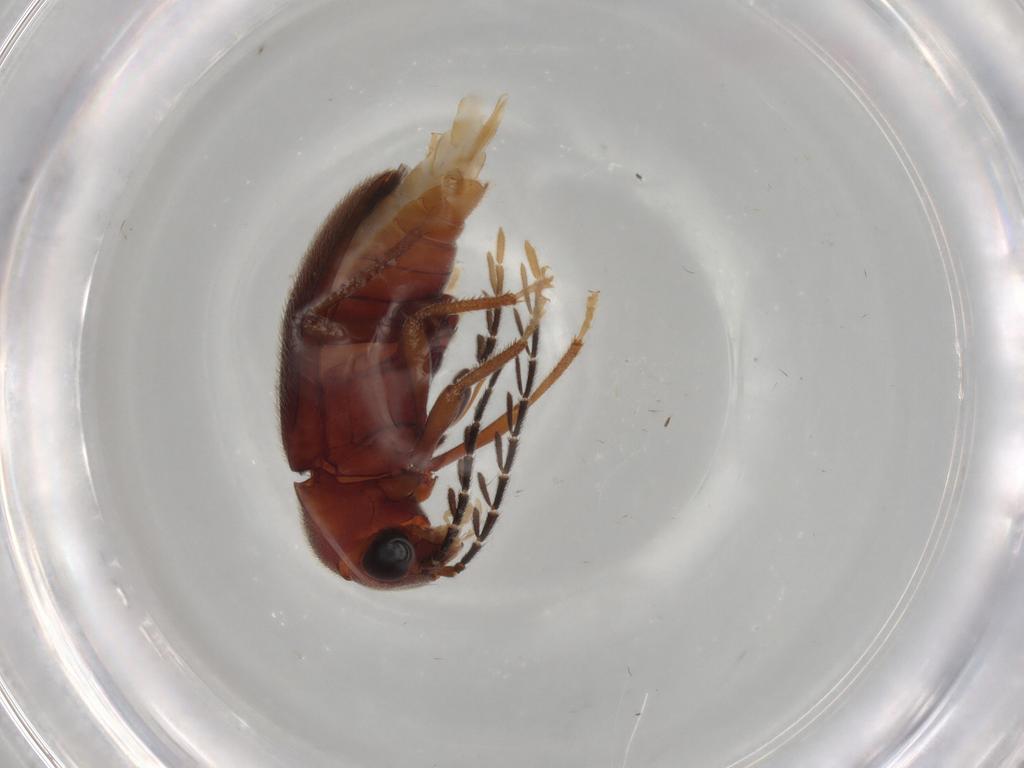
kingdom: Animalia
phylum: Arthropoda
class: Insecta
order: Coleoptera
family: Ptilodactylidae
